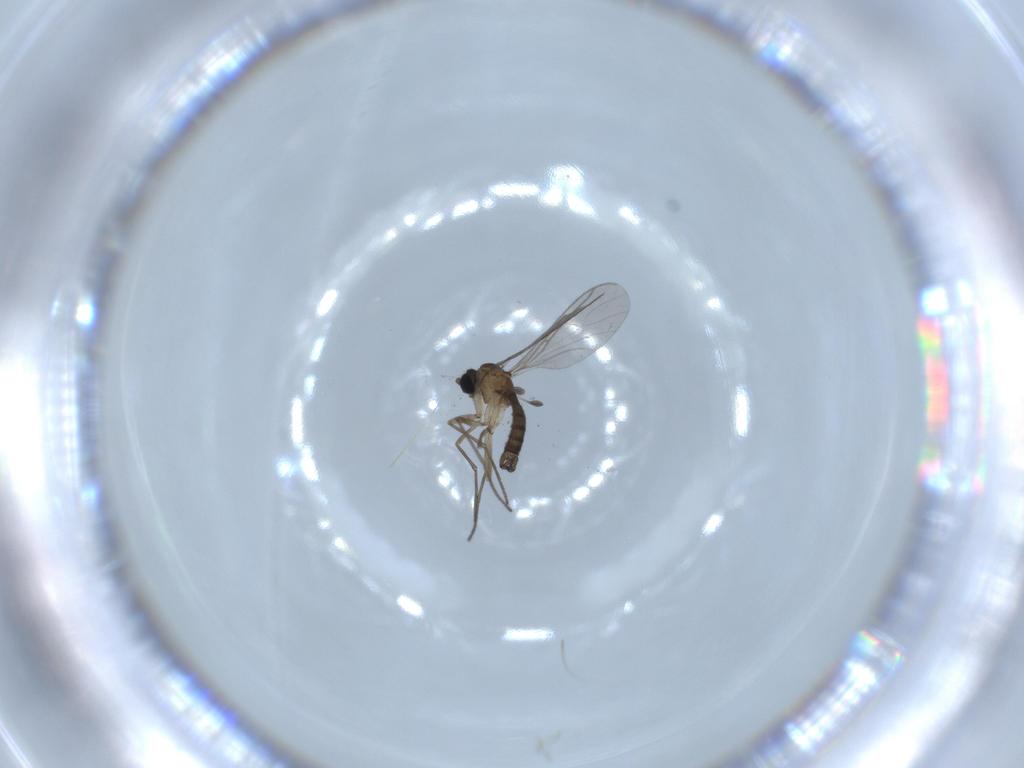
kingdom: Animalia
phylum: Arthropoda
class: Insecta
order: Diptera
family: Sciaridae
